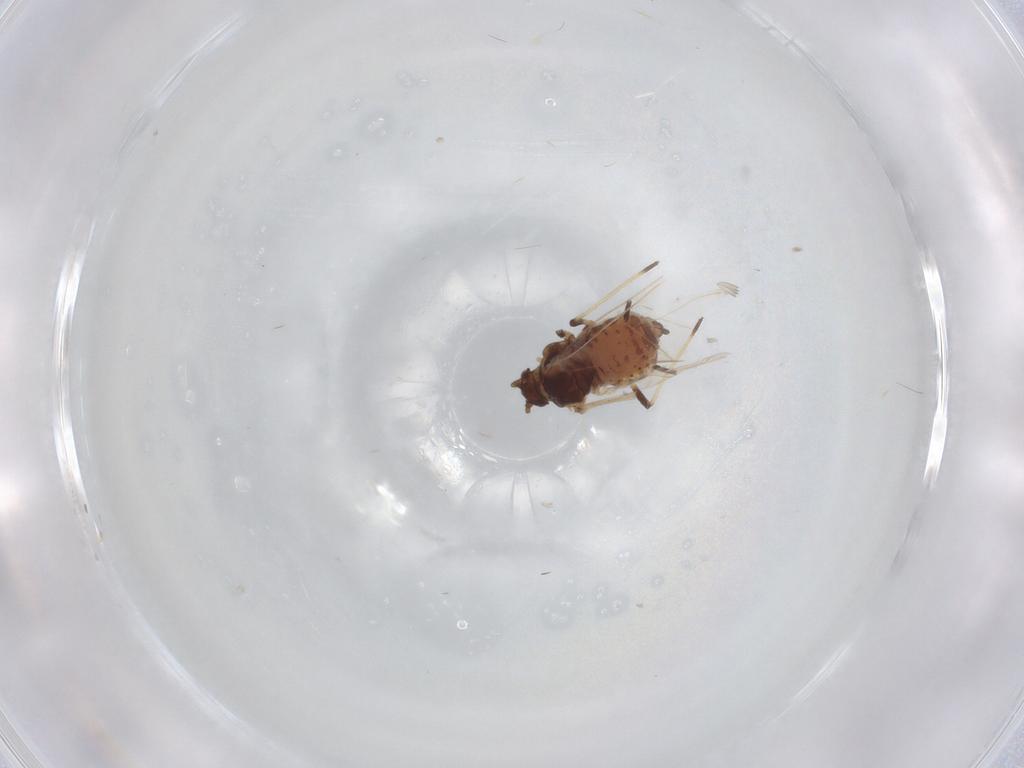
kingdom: Animalia
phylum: Arthropoda
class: Insecta
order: Hemiptera
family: Aphididae
